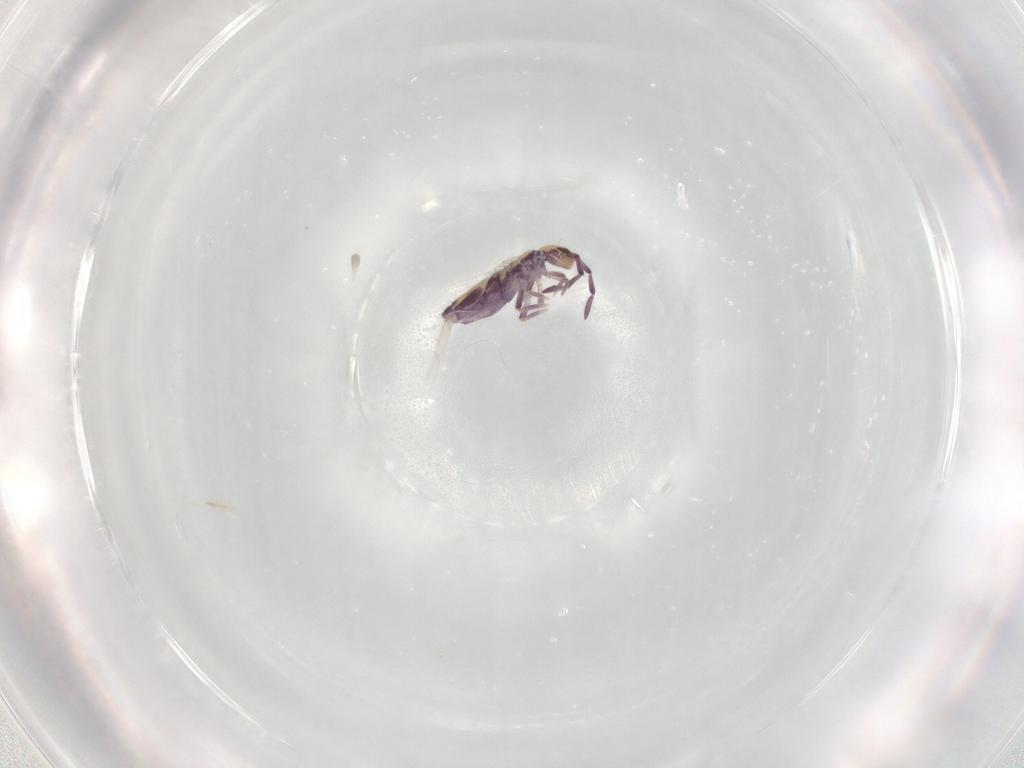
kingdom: Animalia
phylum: Arthropoda
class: Collembola
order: Entomobryomorpha
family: Entomobryidae
